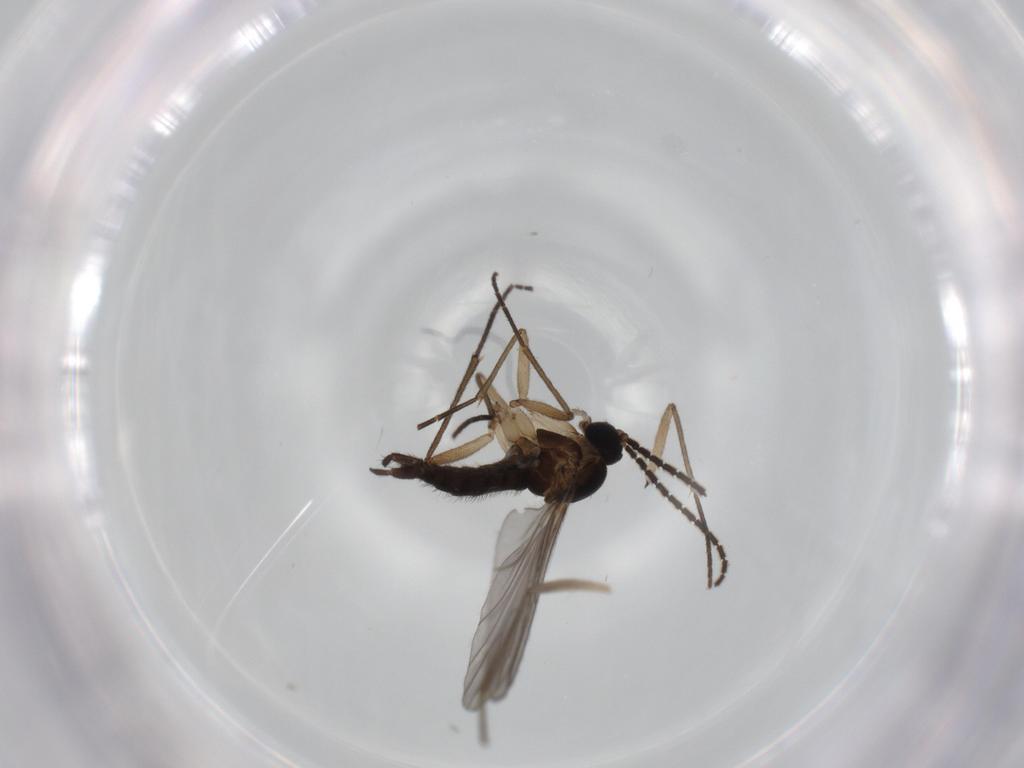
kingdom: Animalia
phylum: Arthropoda
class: Insecta
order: Diptera
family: Sciaridae
